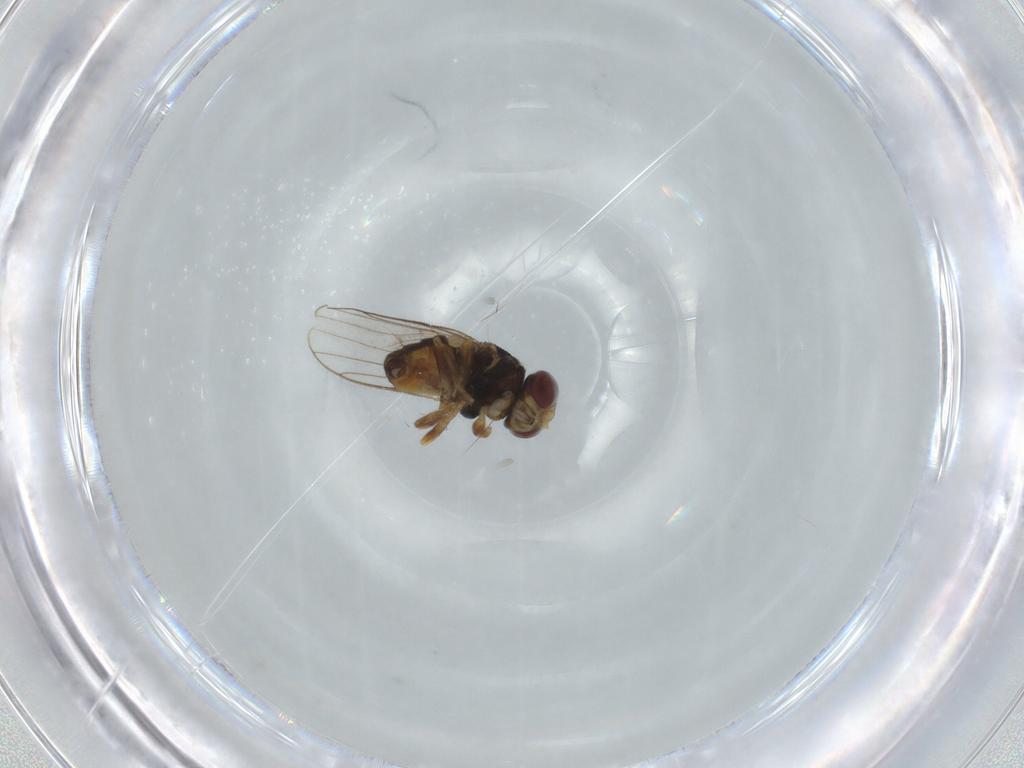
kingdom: Animalia
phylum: Arthropoda
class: Insecta
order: Diptera
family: Chloropidae
